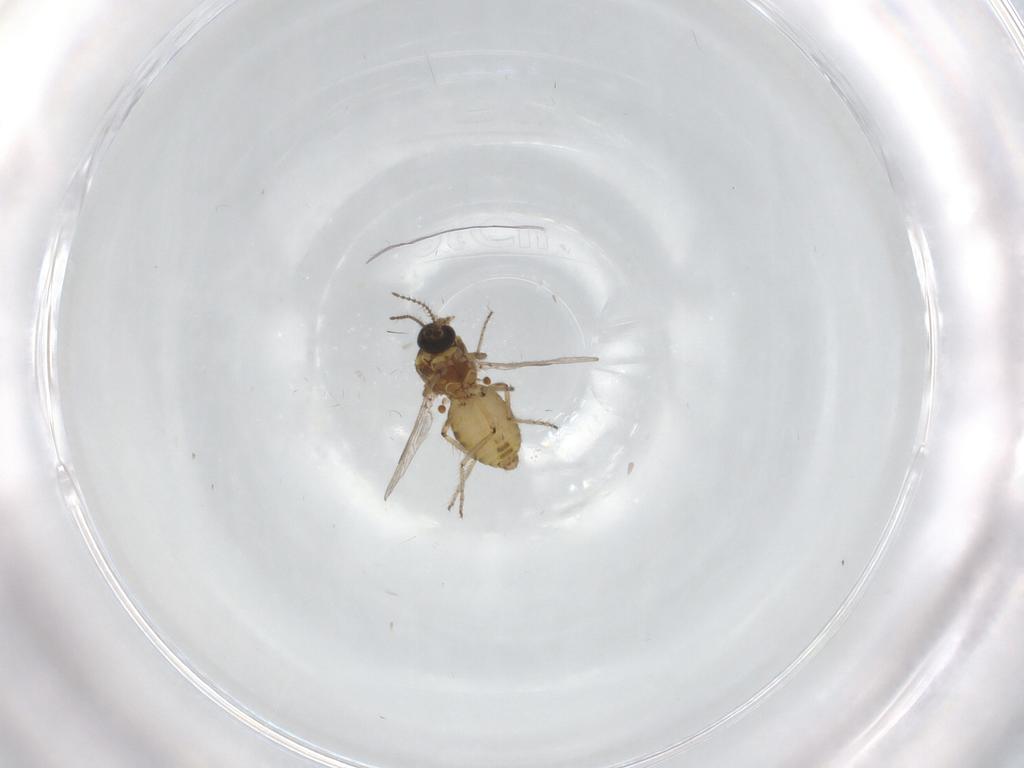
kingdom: Animalia
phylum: Arthropoda
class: Insecta
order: Diptera
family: Ceratopogonidae
